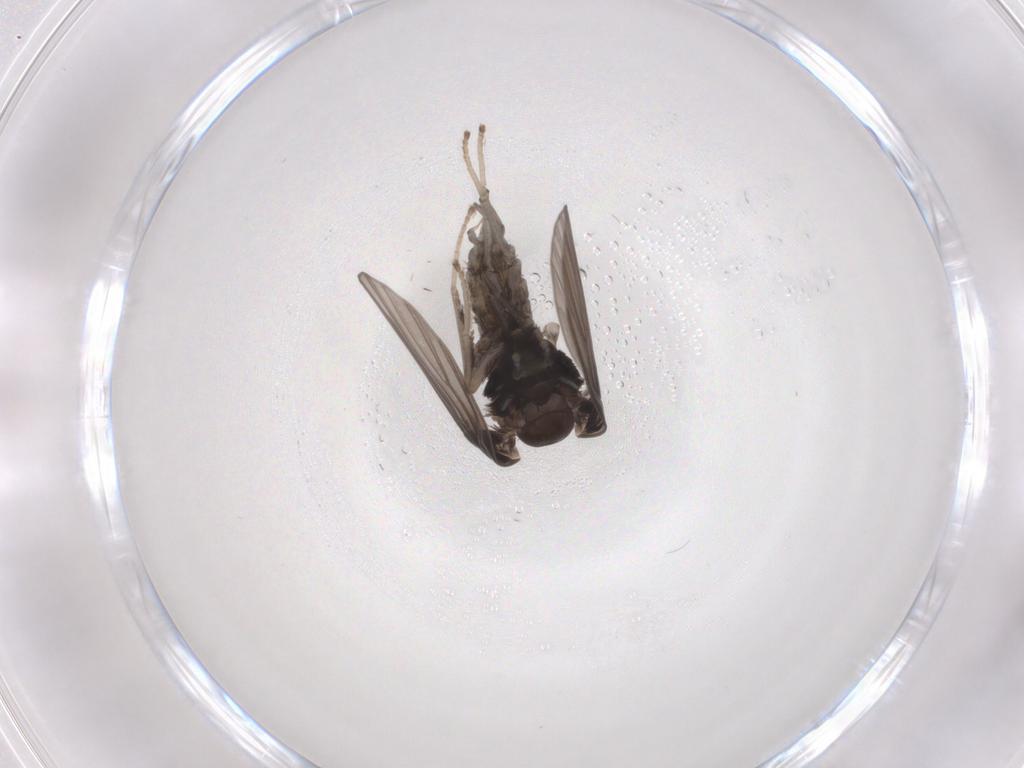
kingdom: Animalia
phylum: Arthropoda
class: Insecta
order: Diptera
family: Psychodidae
